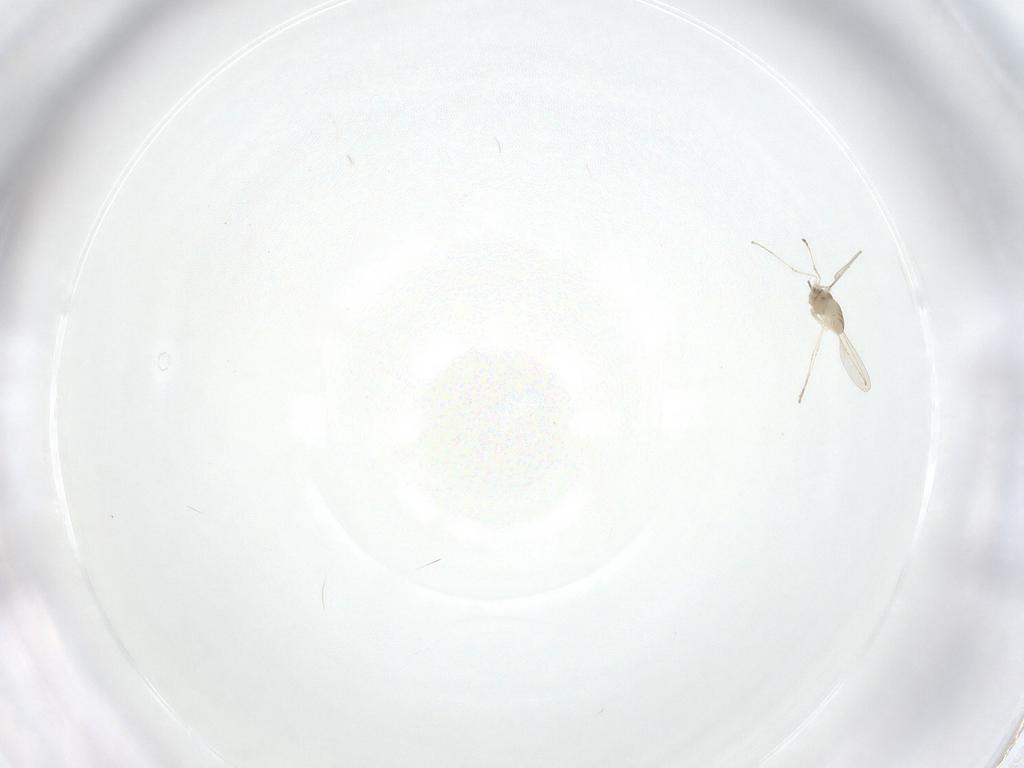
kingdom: Animalia
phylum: Arthropoda
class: Insecta
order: Diptera
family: Cecidomyiidae
